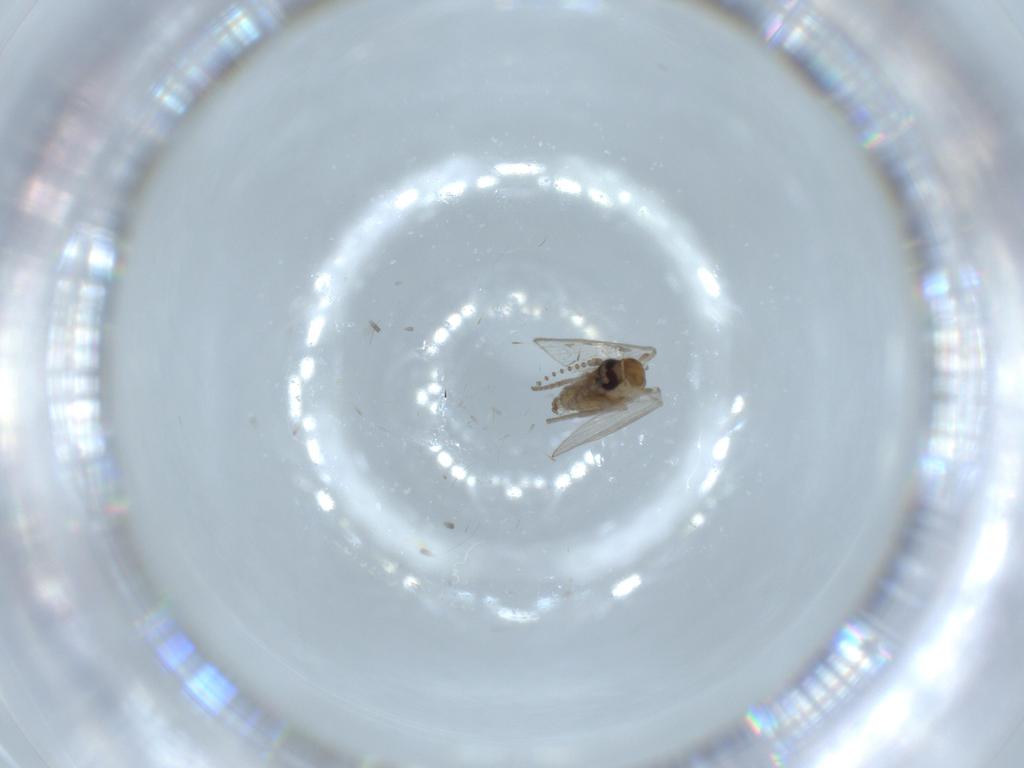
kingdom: Animalia
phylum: Arthropoda
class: Insecta
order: Diptera
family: Psychodidae
